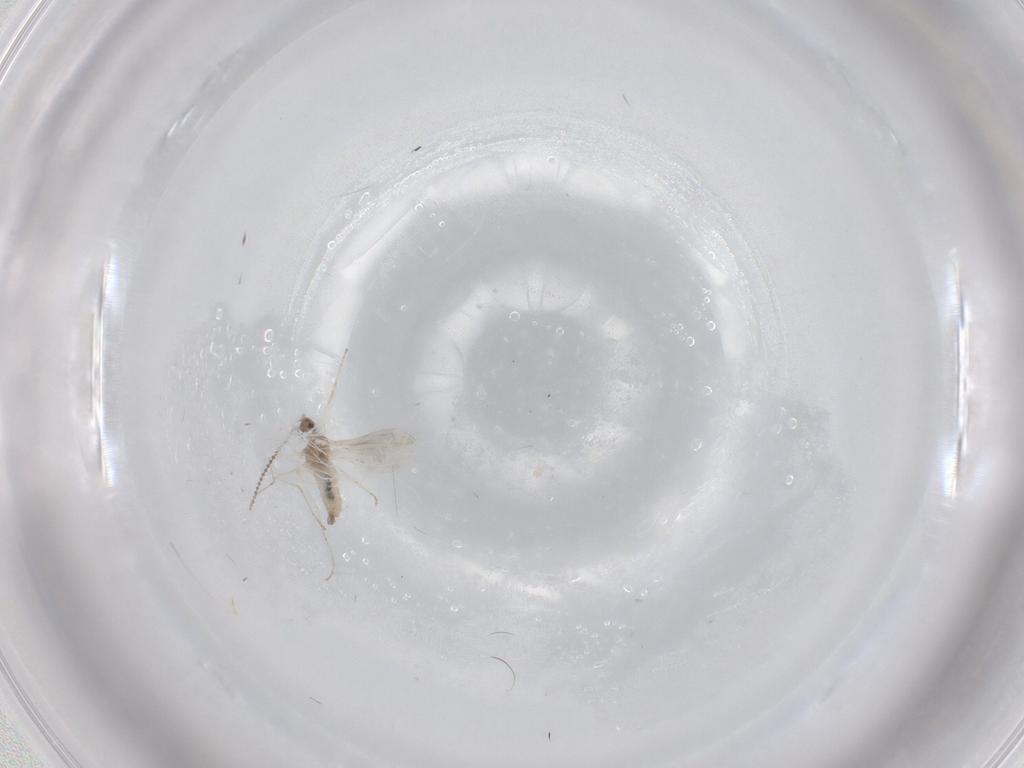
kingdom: Animalia
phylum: Arthropoda
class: Insecta
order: Diptera
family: Cecidomyiidae
